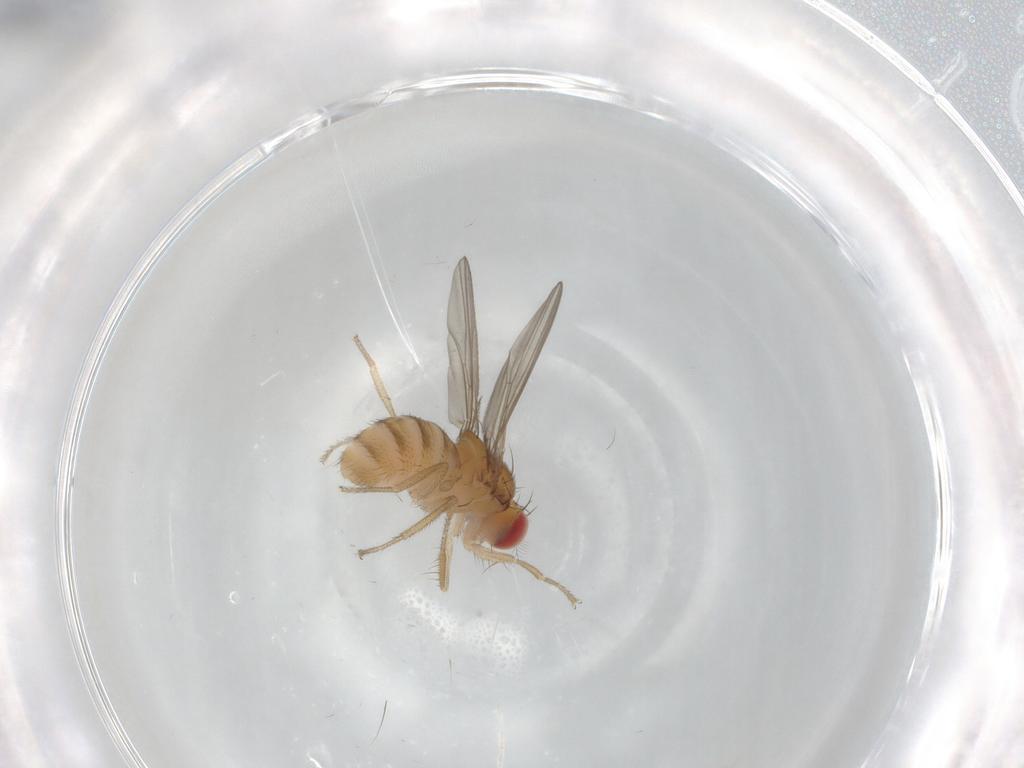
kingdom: Animalia
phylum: Arthropoda
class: Insecta
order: Diptera
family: Drosophilidae
